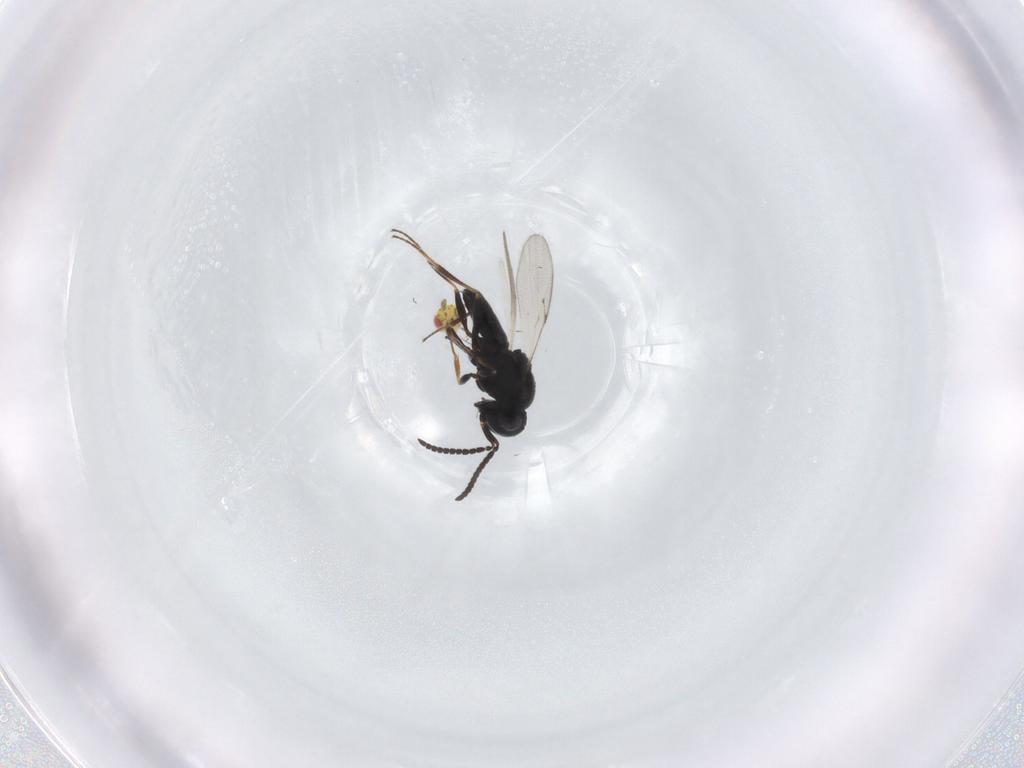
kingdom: Animalia
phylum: Arthropoda
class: Insecta
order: Hymenoptera
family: Scelionidae
